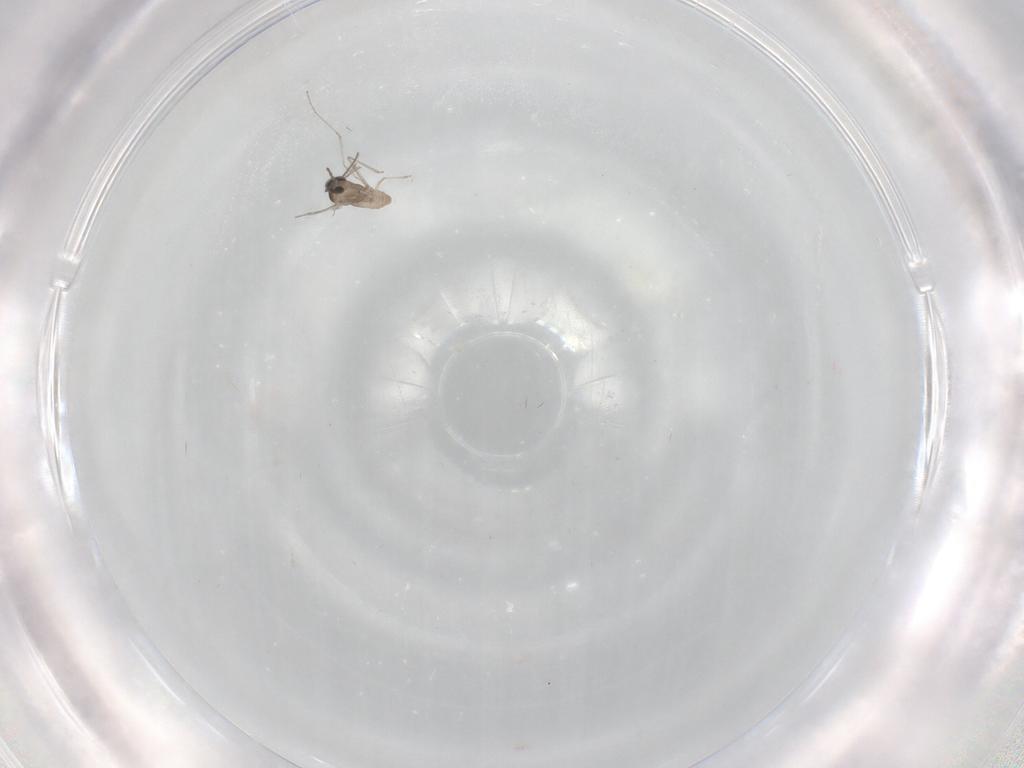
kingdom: Animalia
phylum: Arthropoda
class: Insecta
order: Diptera
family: Cecidomyiidae
